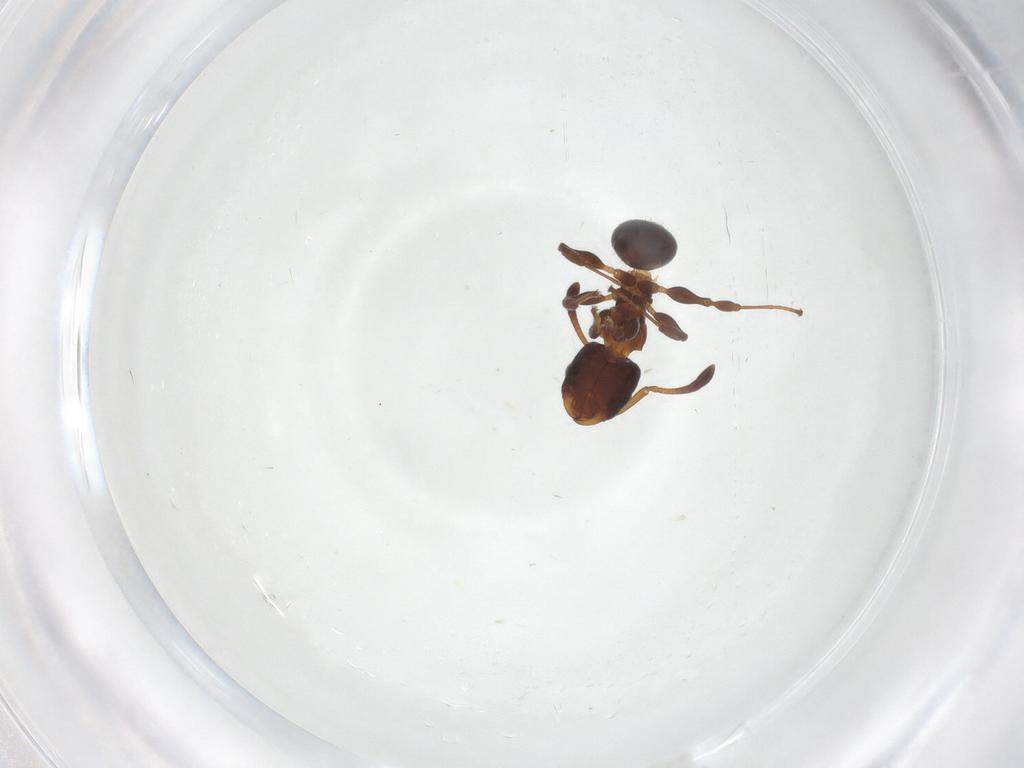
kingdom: Animalia
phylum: Arthropoda
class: Insecta
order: Hymenoptera
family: Formicidae
